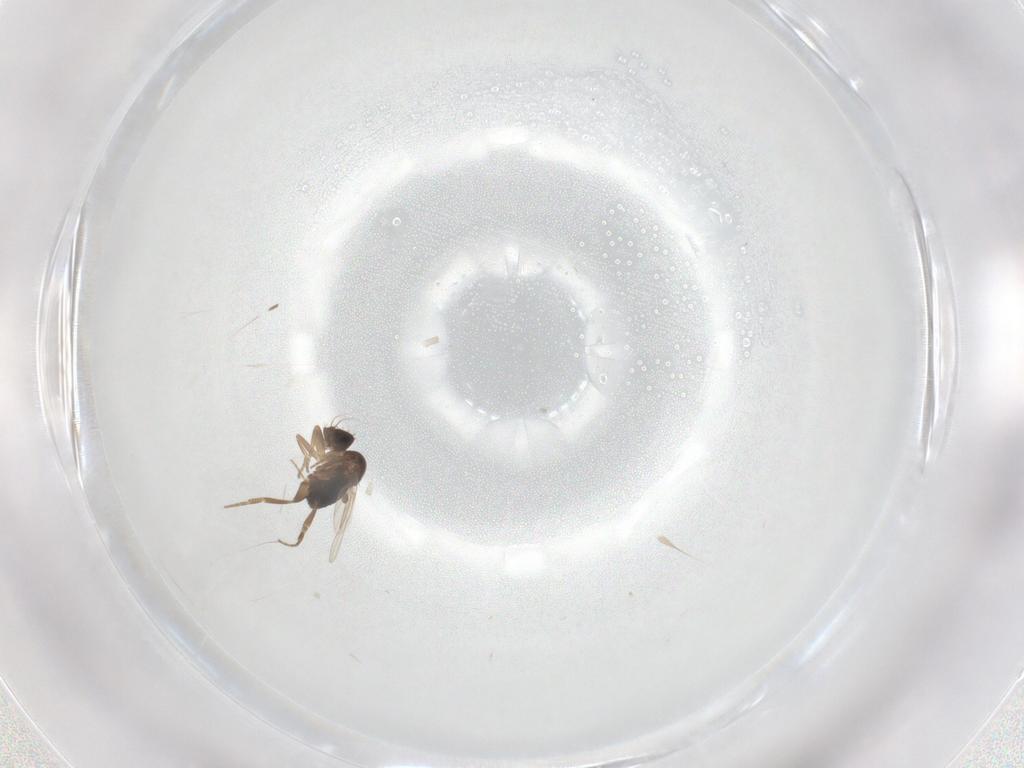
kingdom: Animalia
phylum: Arthropoda
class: Insecta
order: Diptera
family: Phoridae
